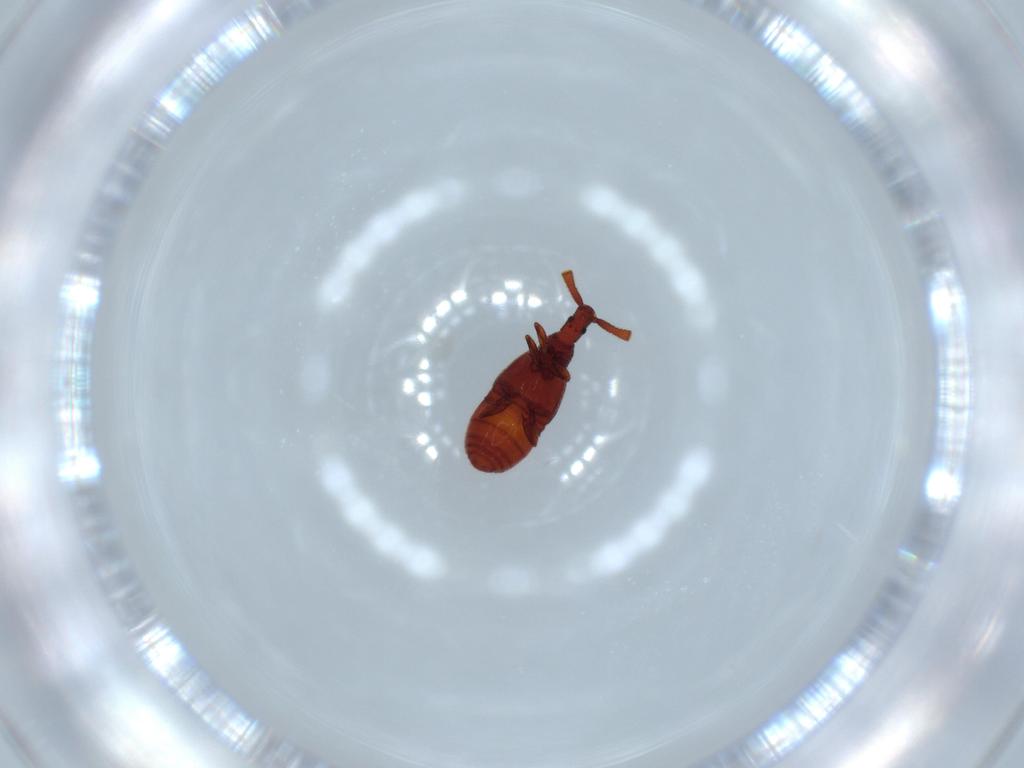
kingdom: Animalia
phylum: Arthropoda
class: Insecta
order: Coleoptera
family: Staphylinidae
